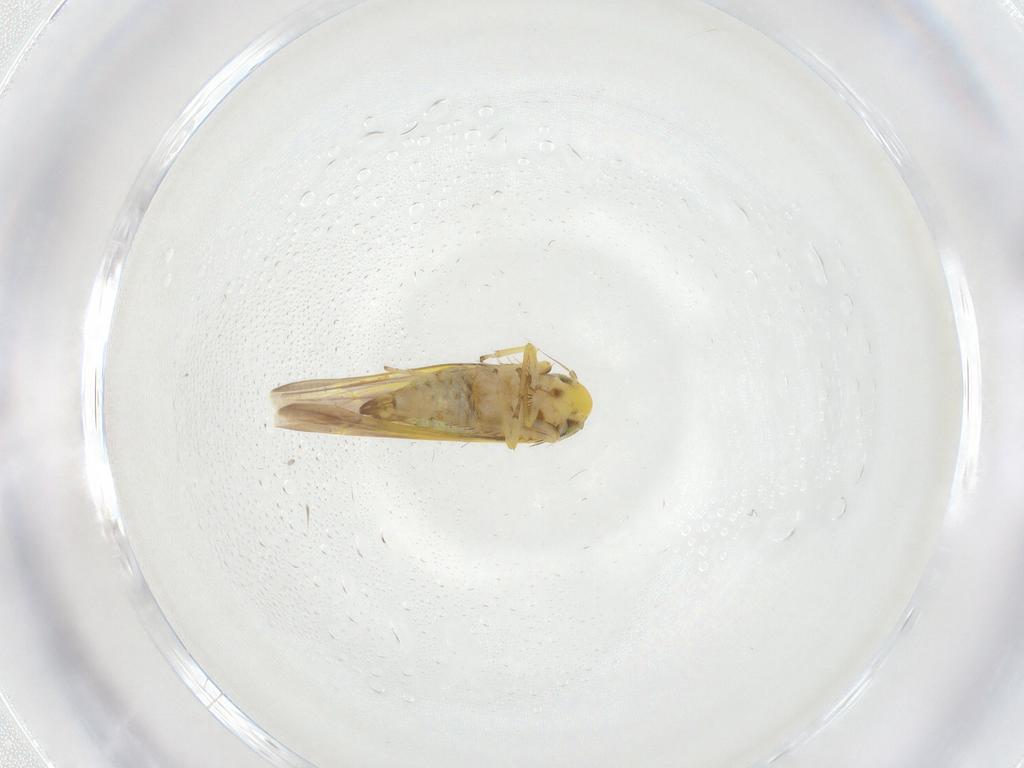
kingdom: Animalia
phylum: Arthropoda
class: Insecta
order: Hemiptera
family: Cicadellidae
